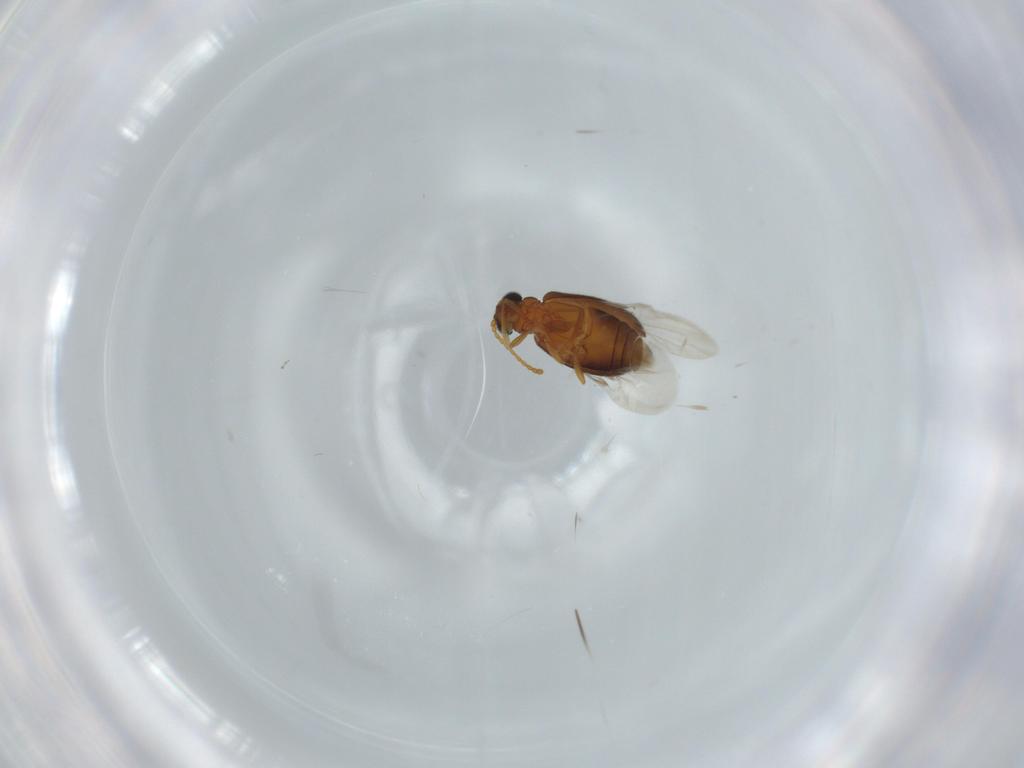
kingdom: Animalia
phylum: Arthropoda
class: Insecta
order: Coleoptera
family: Aderidae
